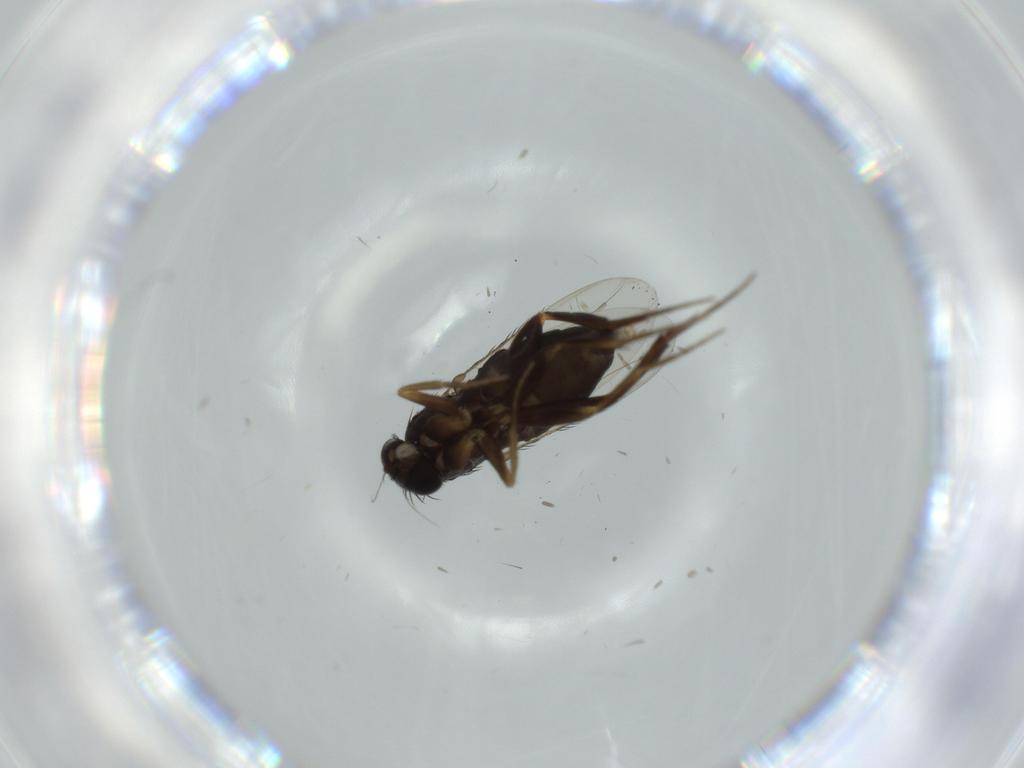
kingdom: Animalia
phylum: Arthropoda
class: Insecta
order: Diptera
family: Phoridae
